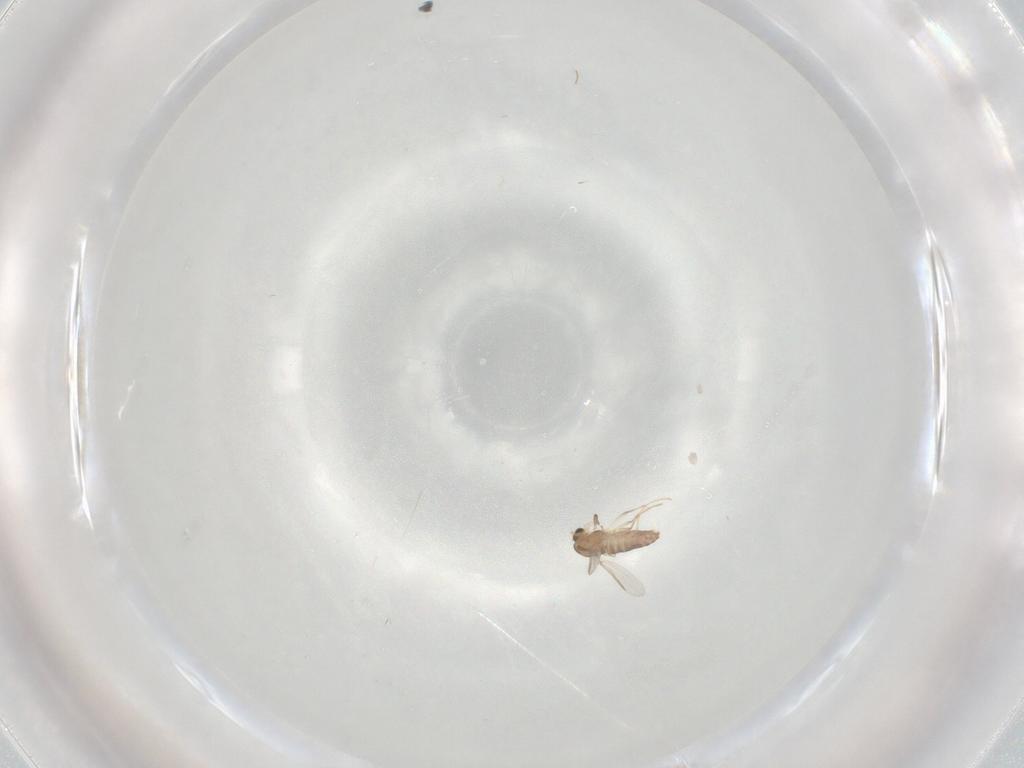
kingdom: Animalia
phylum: Arthropoda
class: Insecta
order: Diptera
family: Chironomidae
